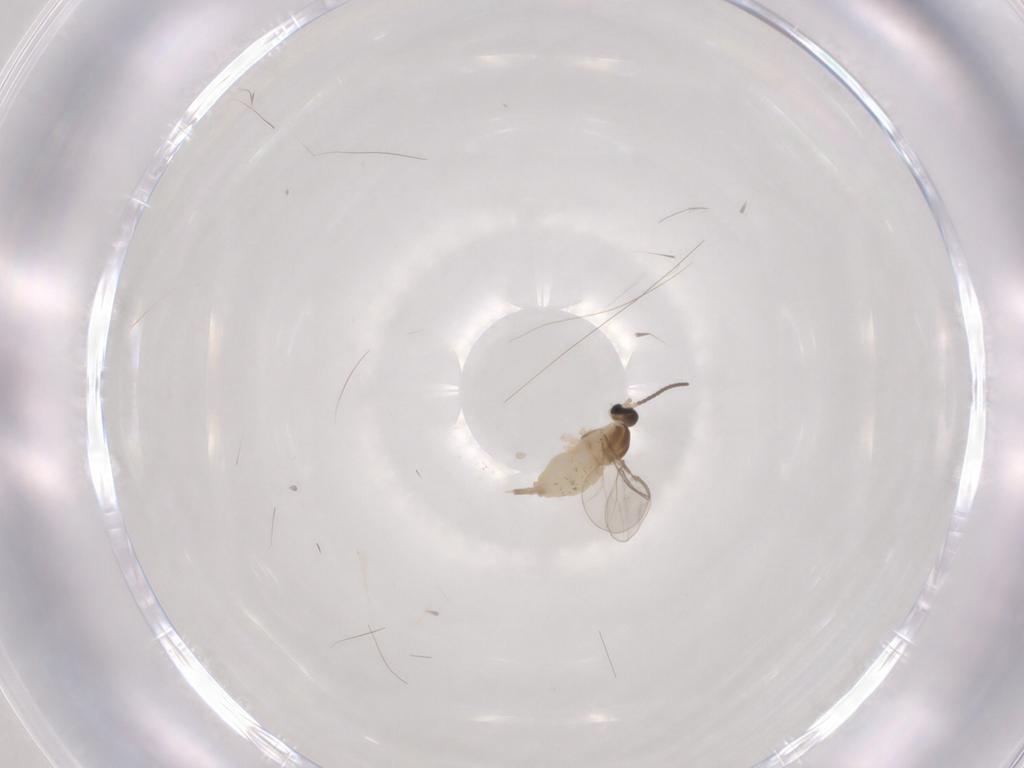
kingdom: Animalia
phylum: Arthropoda
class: Insecta
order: Diptera
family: Cecidomyiidae
